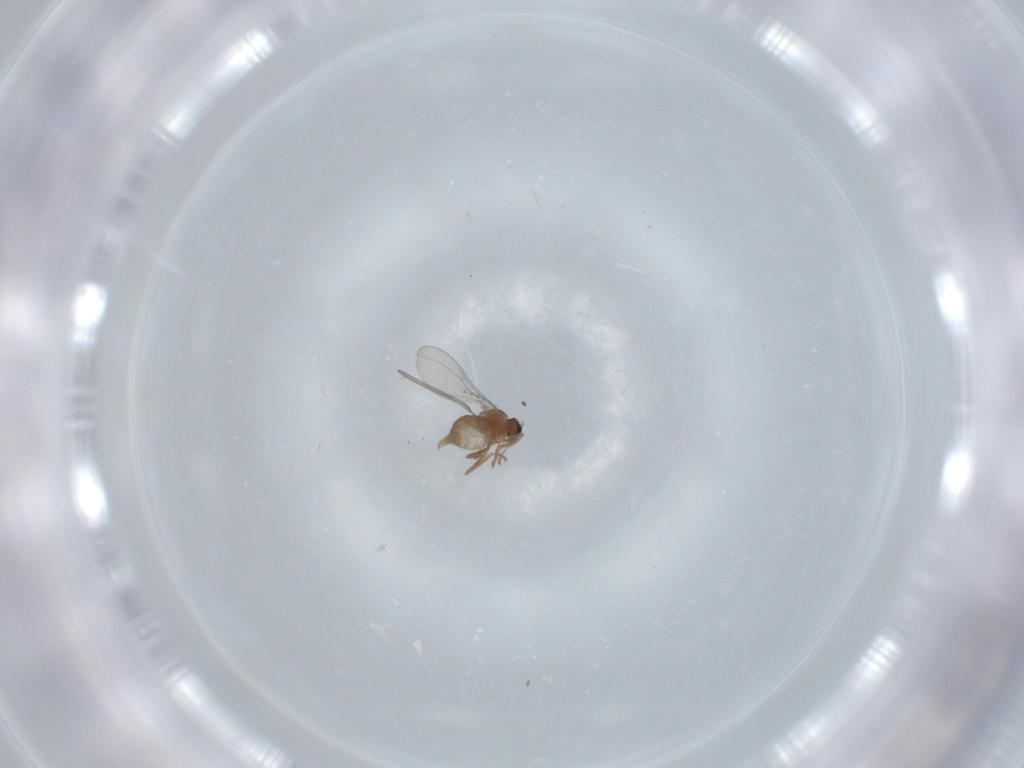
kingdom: Animalia
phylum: Arthropoda
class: Insecta
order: Diptera
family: Cecidomyiidae
